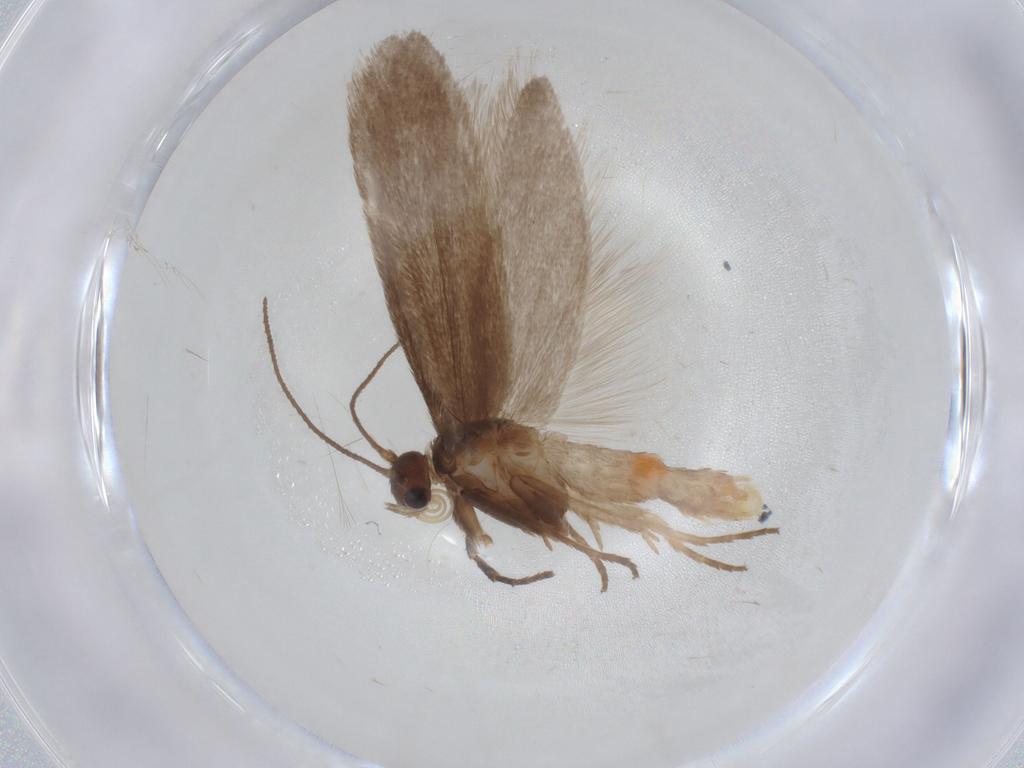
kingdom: Animalia
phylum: Arthropoda
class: Insecta
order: Lepidoptera
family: Limacodidae
